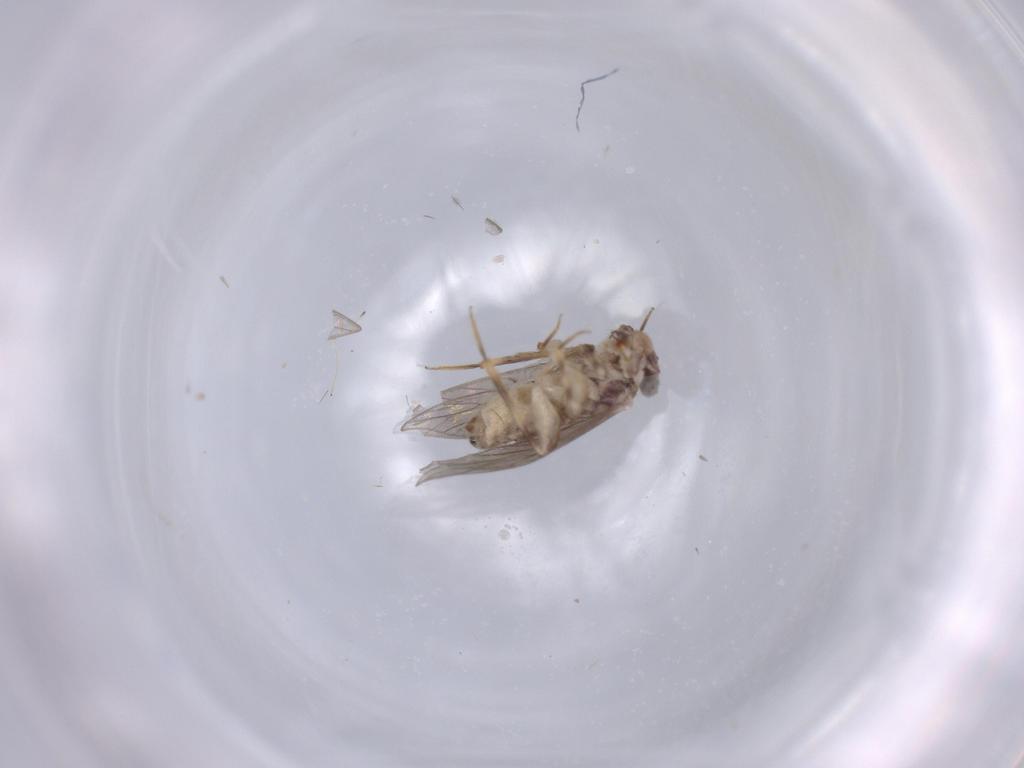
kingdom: Animalia
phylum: Arthropoda
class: Insecta
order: Psocodea
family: Lepidopsocidae
